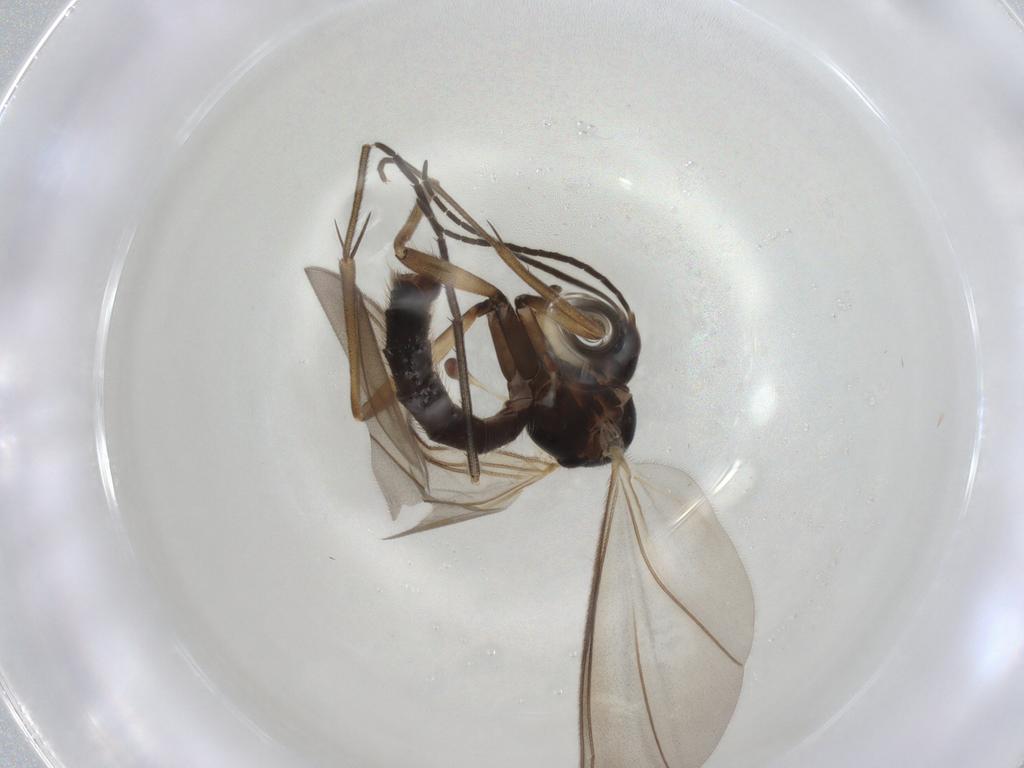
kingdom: Animalia
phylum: Arthropoda
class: Insecta
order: Diptera
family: Mycetophilidae
